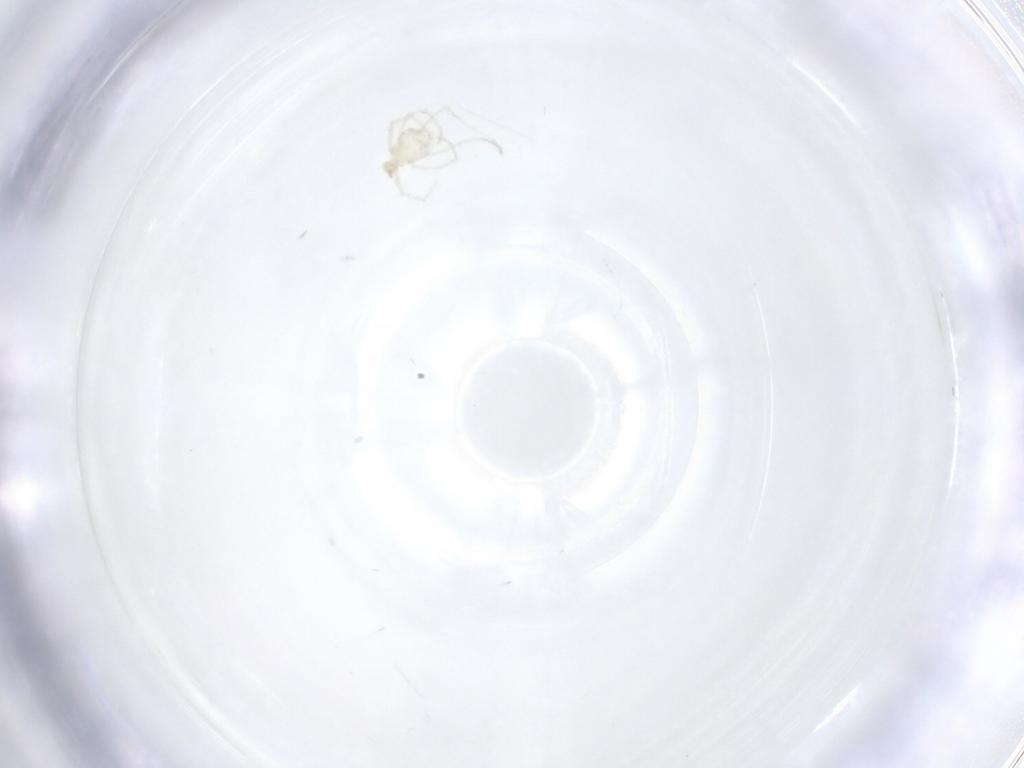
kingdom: Animalia
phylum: Arthropoda
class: Arachnida
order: Trombidiformes
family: Erythraeidae
